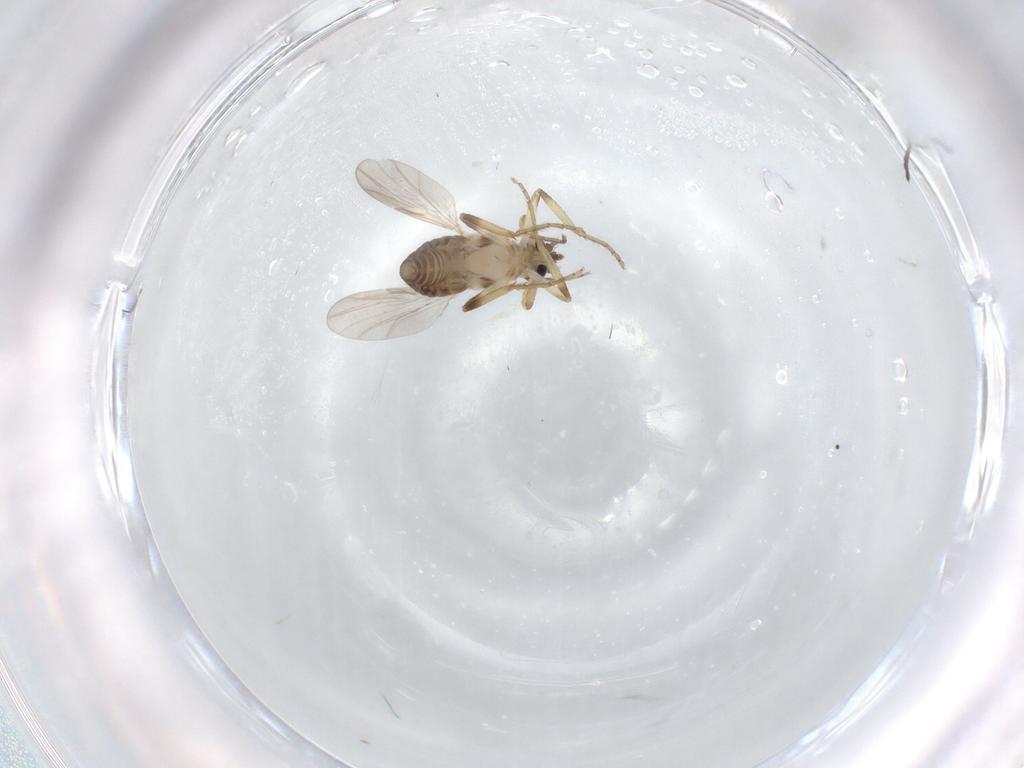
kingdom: Animalia
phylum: Arthropoda
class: Insecta
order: Diptera
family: Ceratopogonidae
